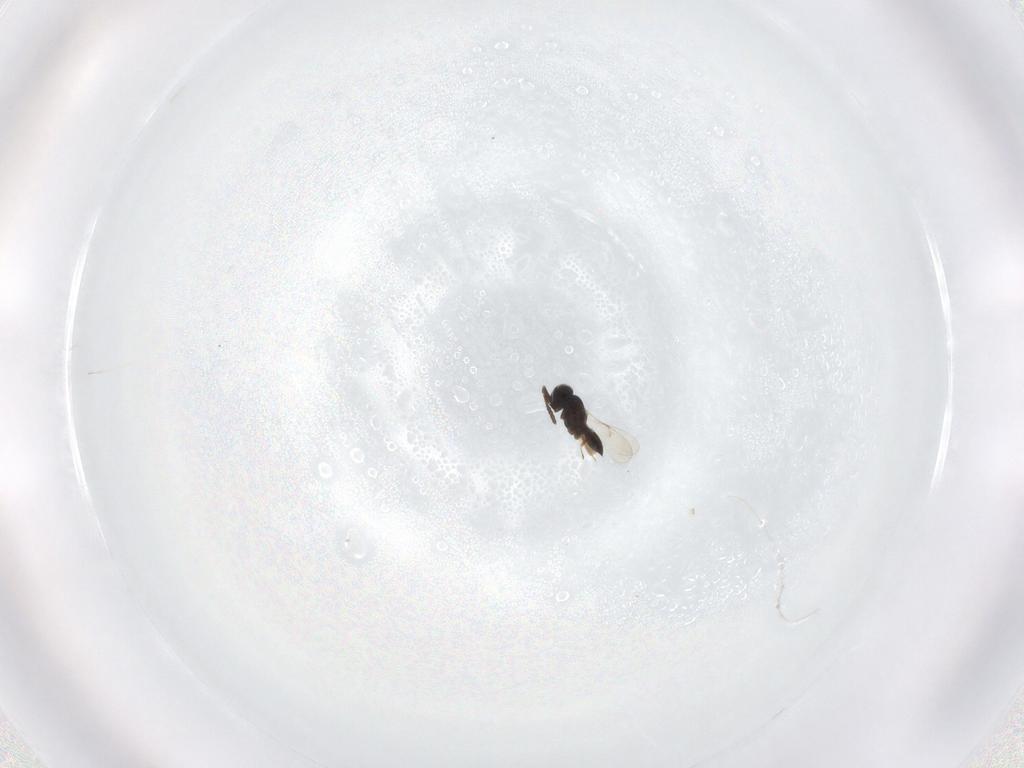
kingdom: Animalia
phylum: Arthropoda
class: Insecta
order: Hymenoptera
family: Scelionidae
